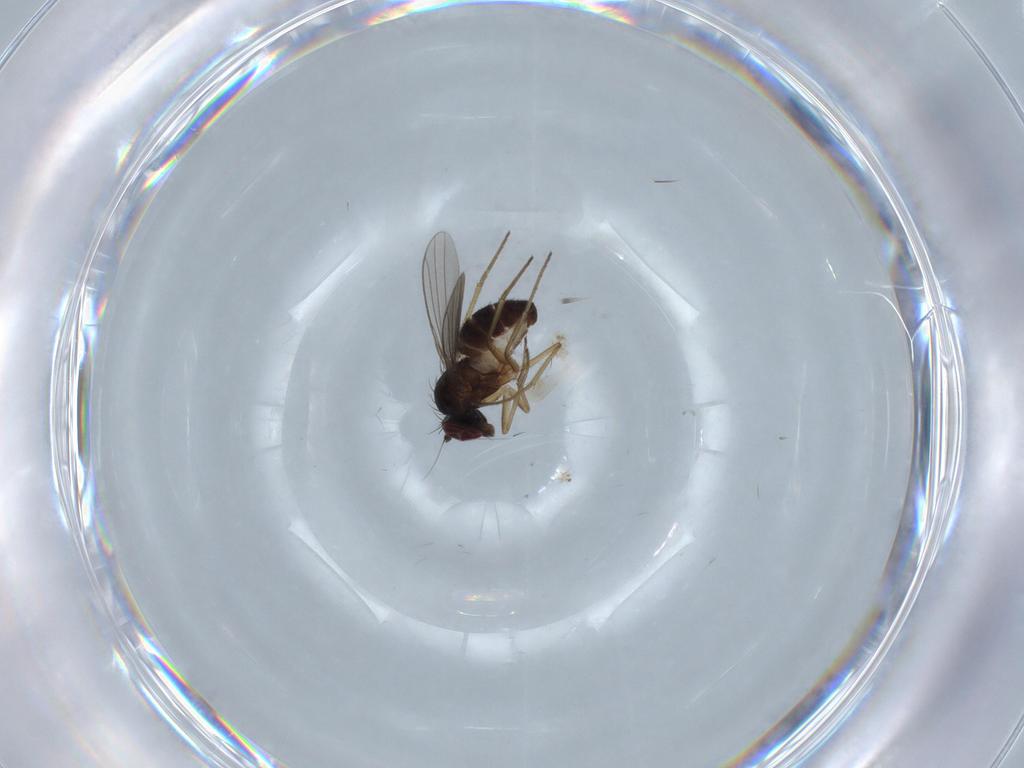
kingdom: Animalia
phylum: Arthropoda
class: Insecta
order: Diptera
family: Dolichopodidae
